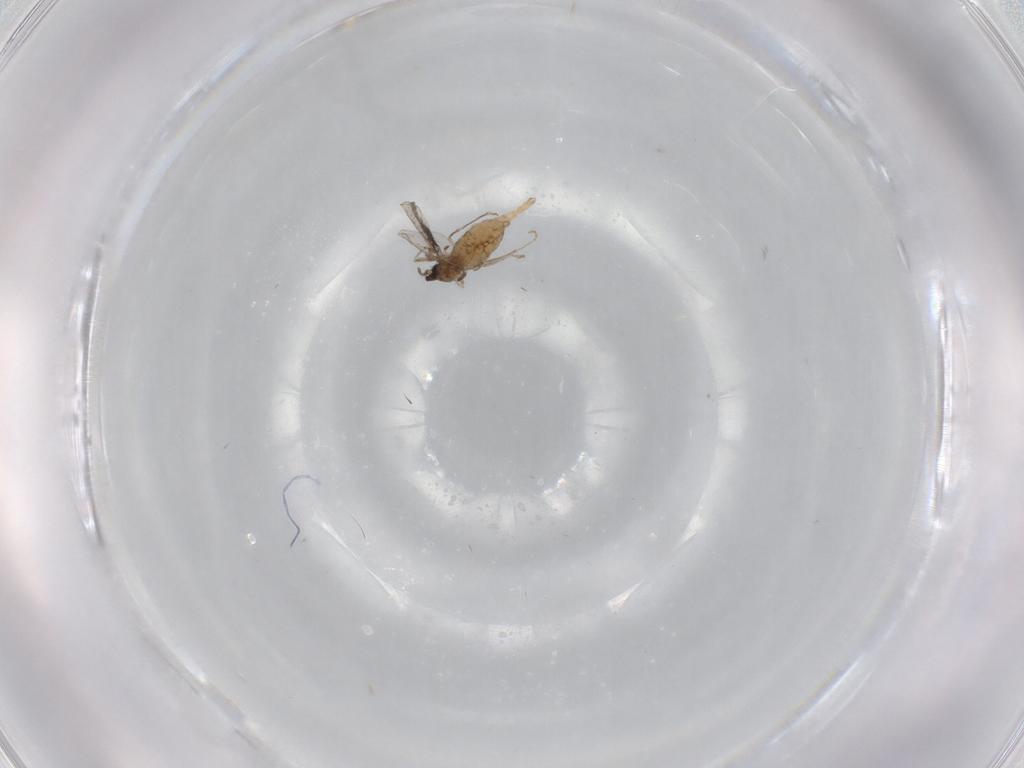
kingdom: Animalia
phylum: Arthropoda
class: Insecta
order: Diptera
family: Cecidomyiidae
